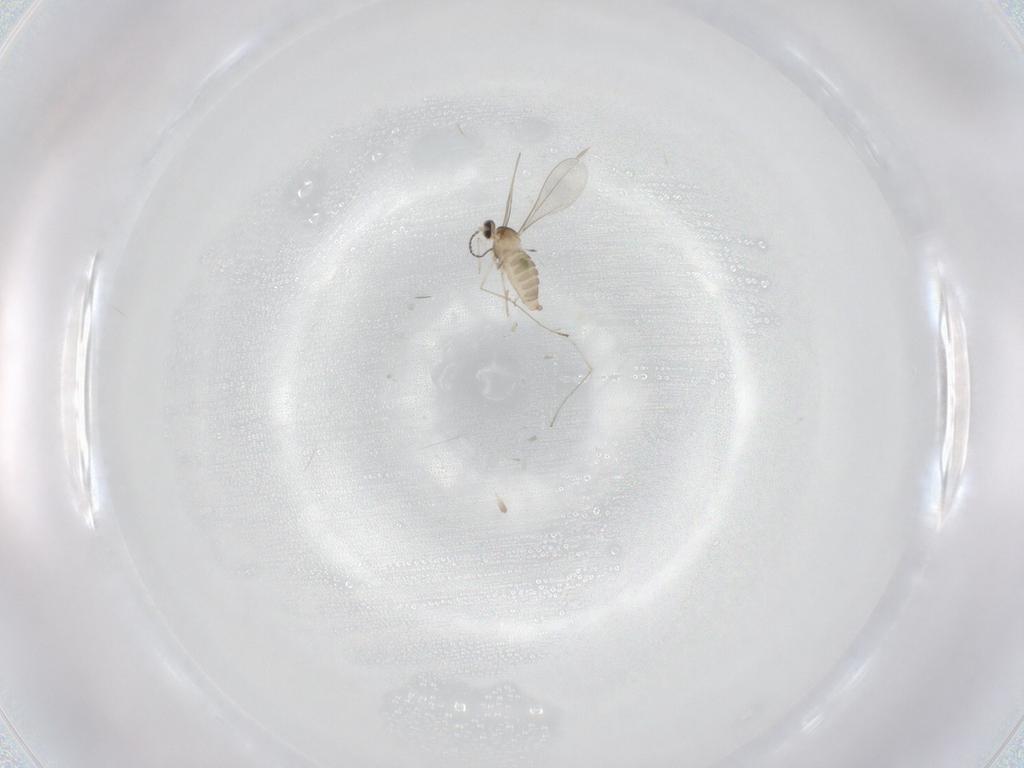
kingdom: Animalia
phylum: Arthropoda
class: Insecta
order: Diptera
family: Cecidomyiidae
